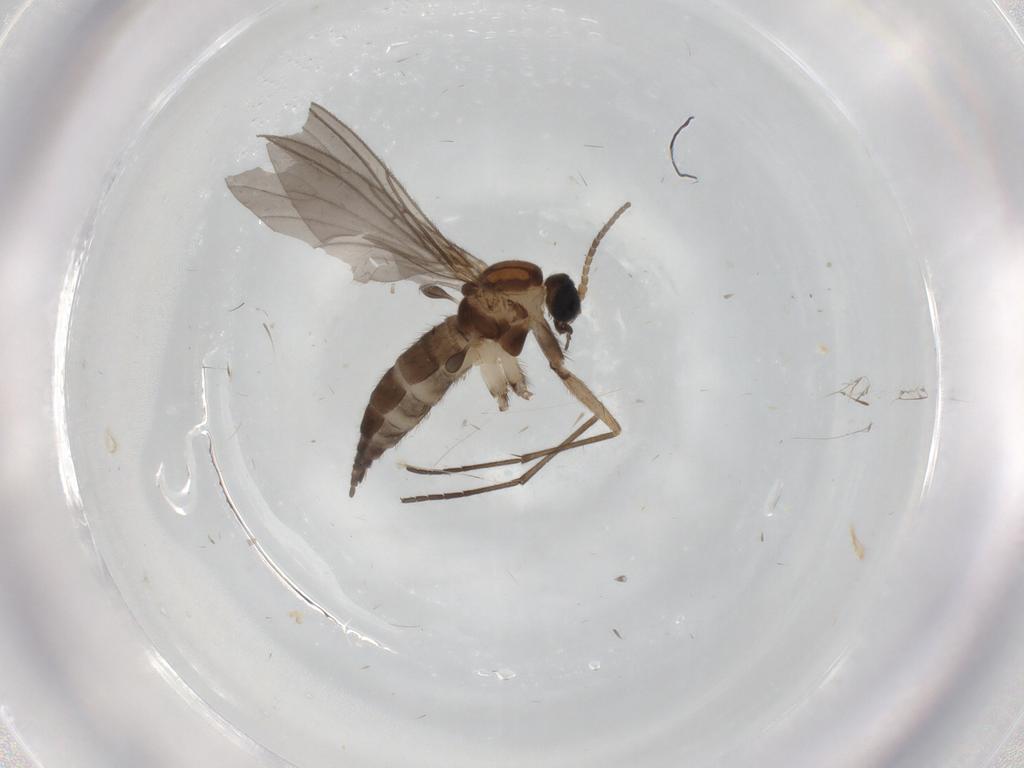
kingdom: Animalia
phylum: Arthropoda
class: Insecta
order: Diptera
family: Sciaridae
